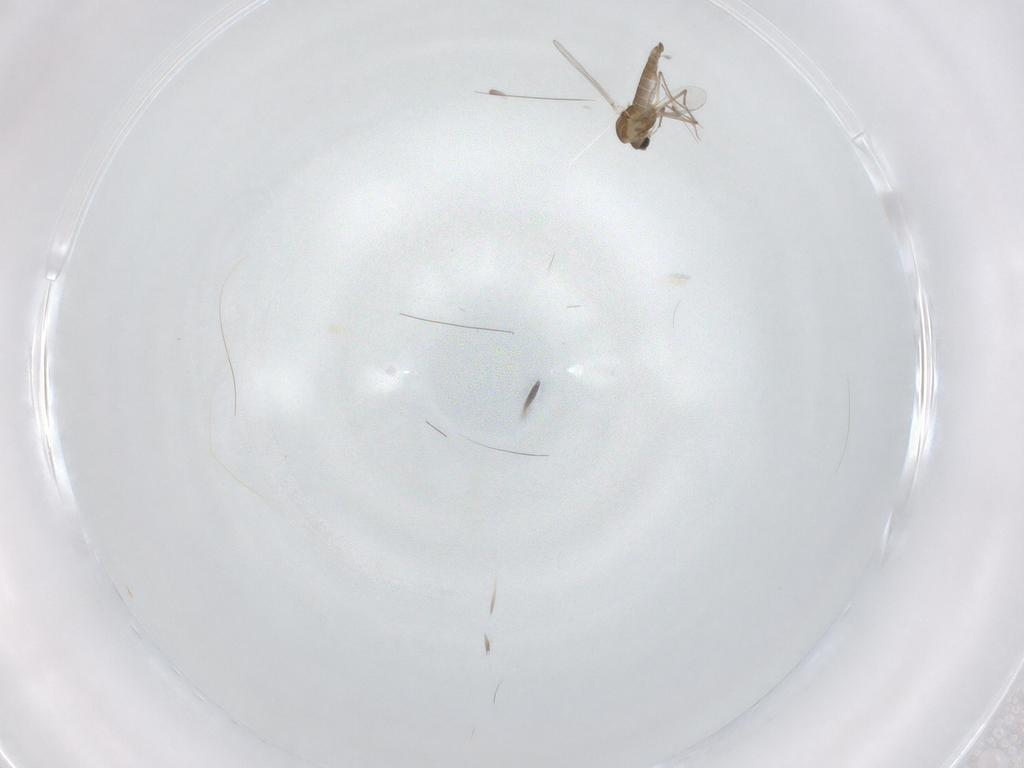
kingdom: Animalia
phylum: Arthropoda
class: Insecta
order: Diptera
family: Chironomidae
